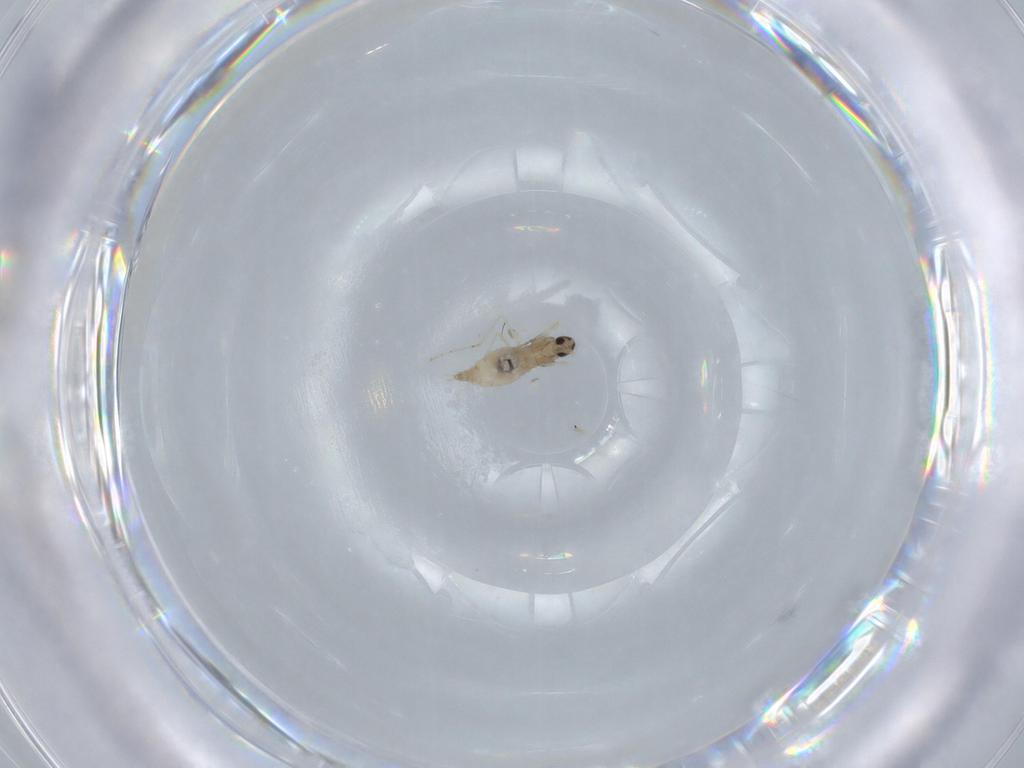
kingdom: Animalia
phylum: Arthropoda
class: Insecta
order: Diptera
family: Cecidomyiidae
